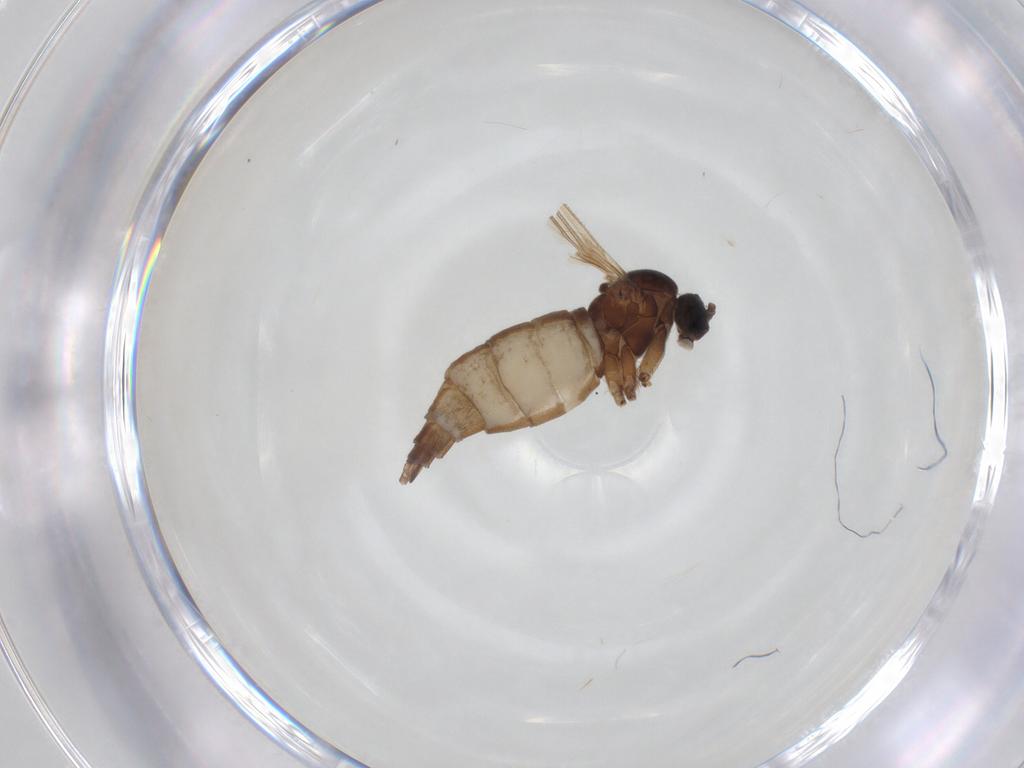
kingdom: Animalia
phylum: Arthropoda
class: Insecta
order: Diptera
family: Sciaridae
